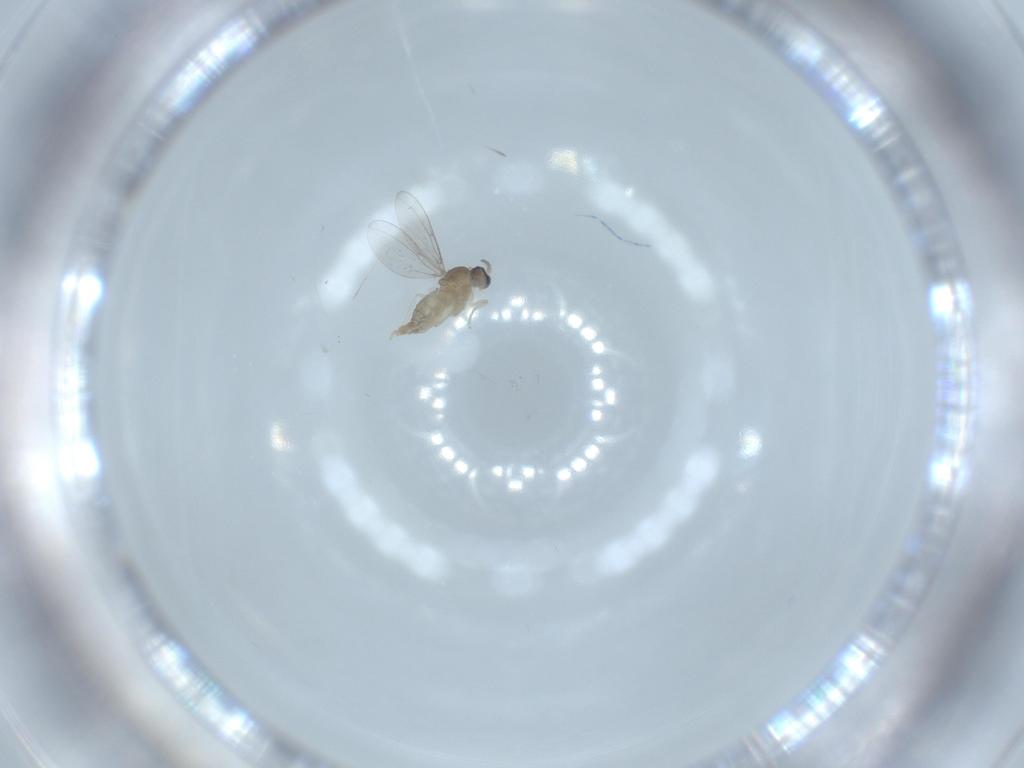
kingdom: Animalia
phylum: Arthropoda
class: Insecta
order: Diptera
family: Cecidomyiidae
